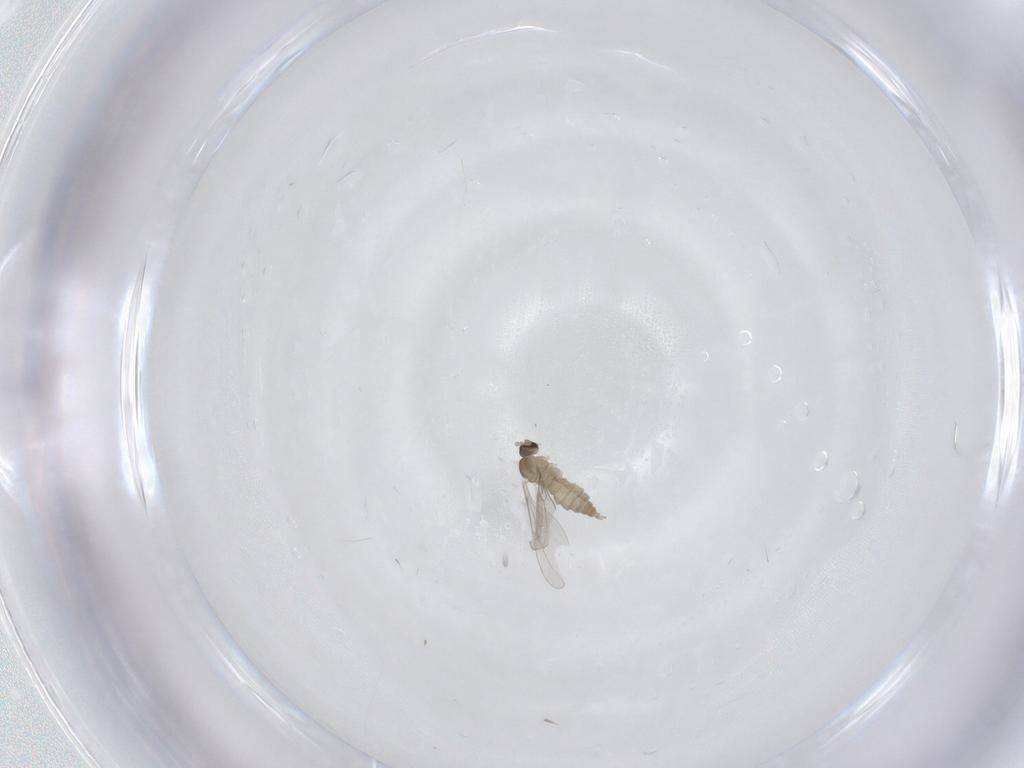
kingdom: Animalia
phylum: Arthropoda
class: Insecta
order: Diptera
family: Cecidomyiidae
